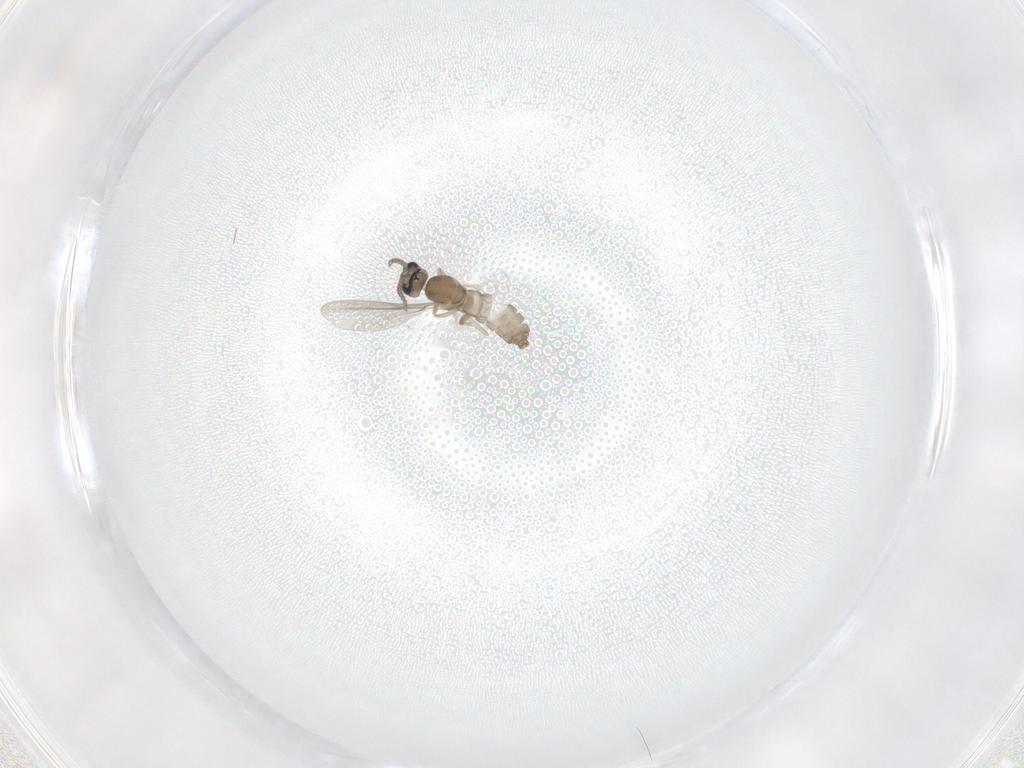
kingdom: Animalia
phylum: Arthropoda
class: Insecta
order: Diptera
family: Cecidomyiidae
